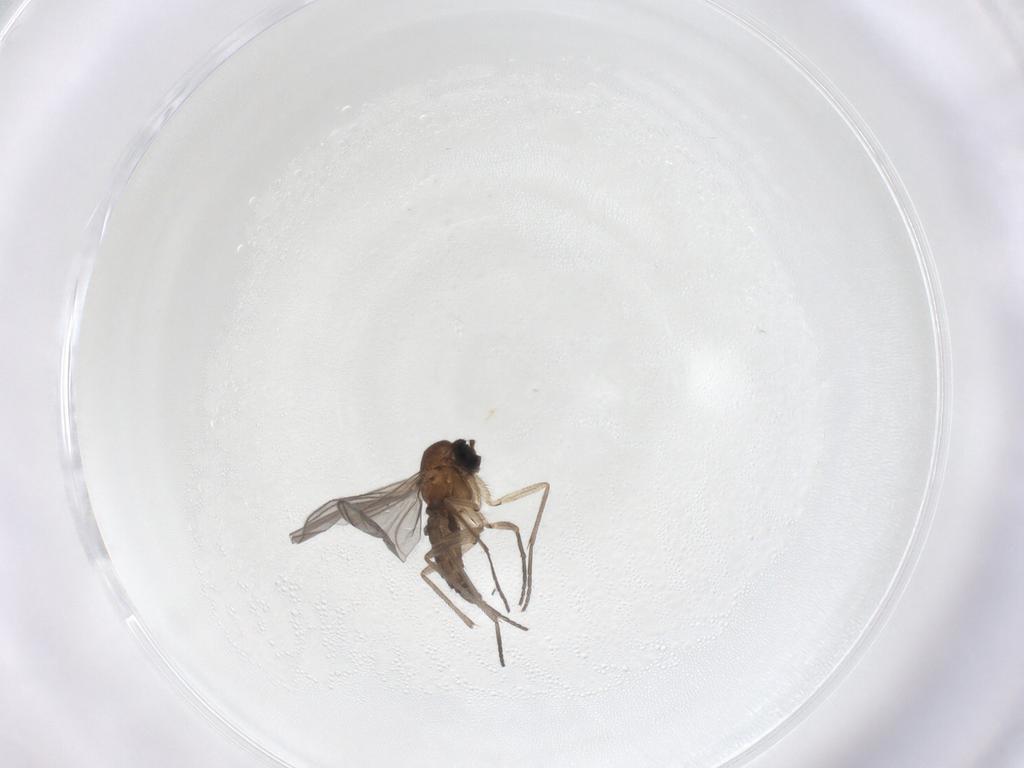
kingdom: Animalia
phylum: Arthropoda
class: Insecta
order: Diptera
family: Sciaridae
